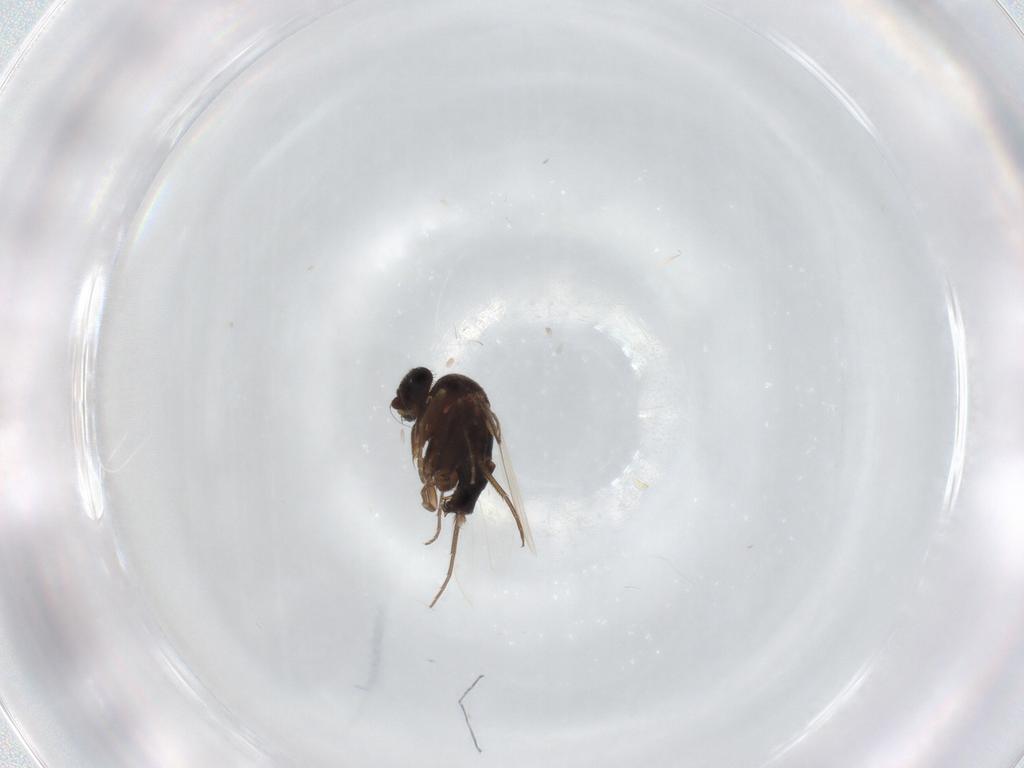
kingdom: Animalia
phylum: Arthropoda
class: Insecta
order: Diptera
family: Phoridae
